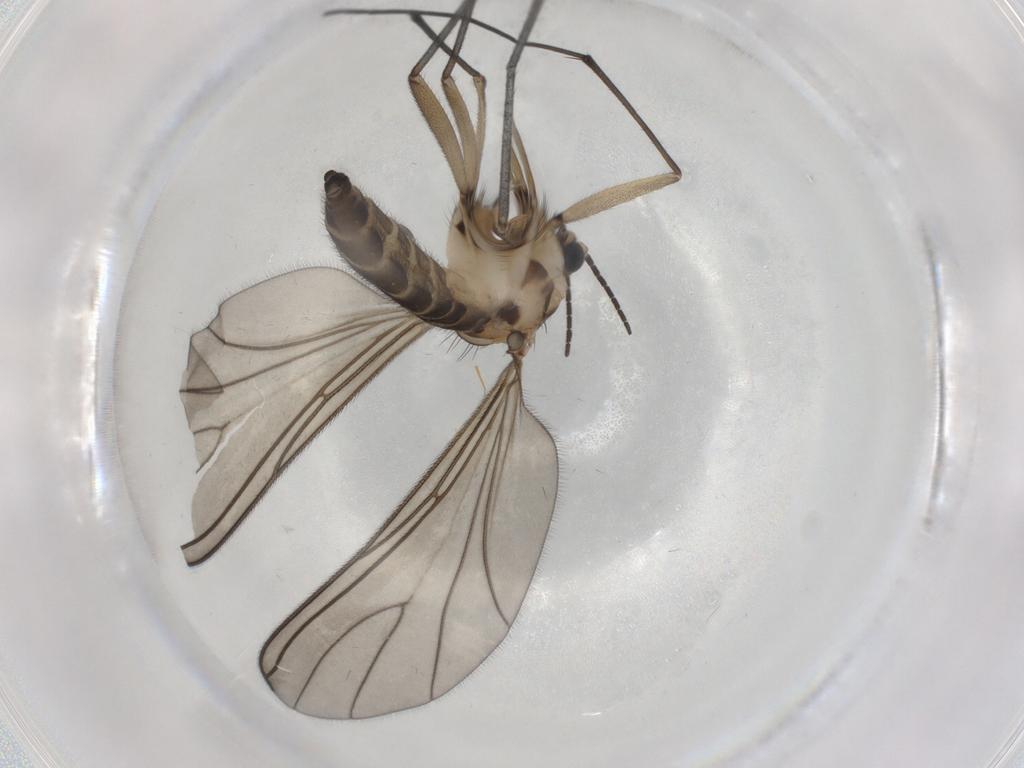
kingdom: Animalia
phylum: Arthropoda
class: Insecta
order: Diptera
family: Sciaridae
